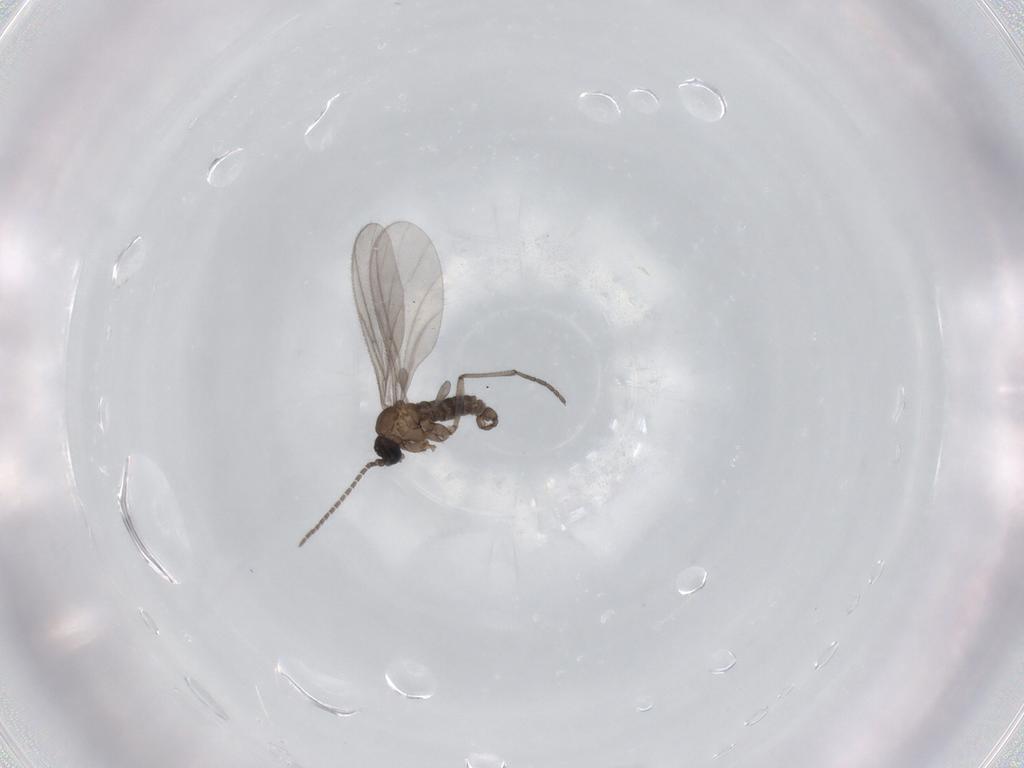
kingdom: Animalia
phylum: Arthropoda
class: Insecta
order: Diptera
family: Sciaridae
